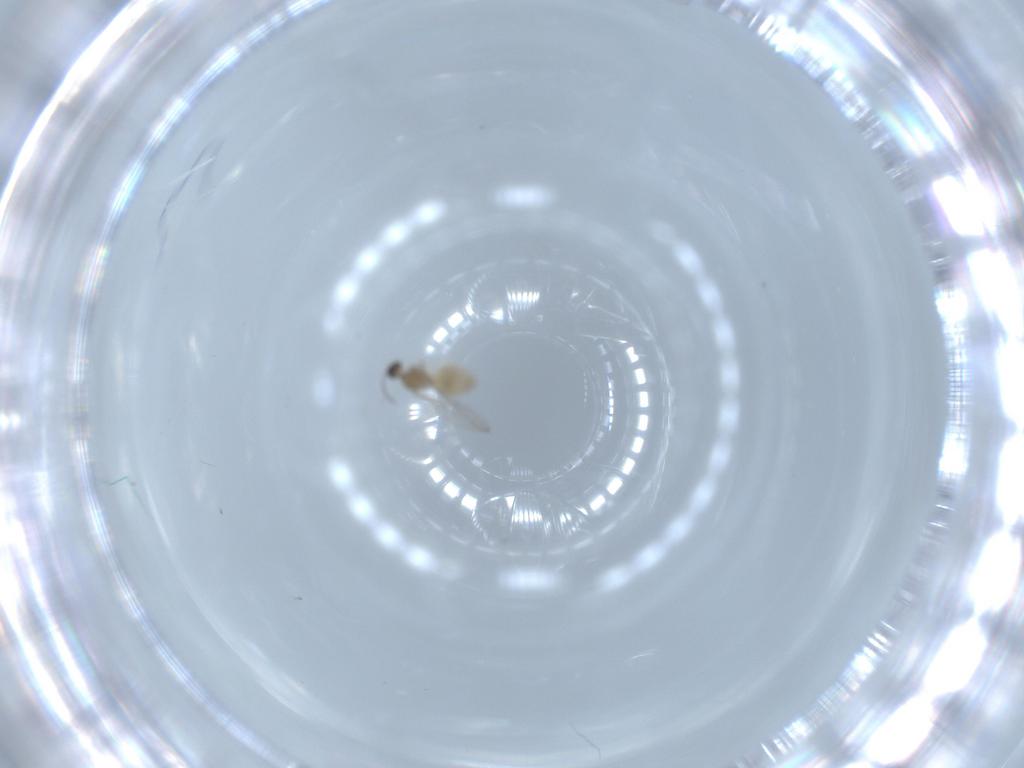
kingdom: Animalia
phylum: Arthropoda
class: Insecta
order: Diptera
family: Cecidomyiidae
